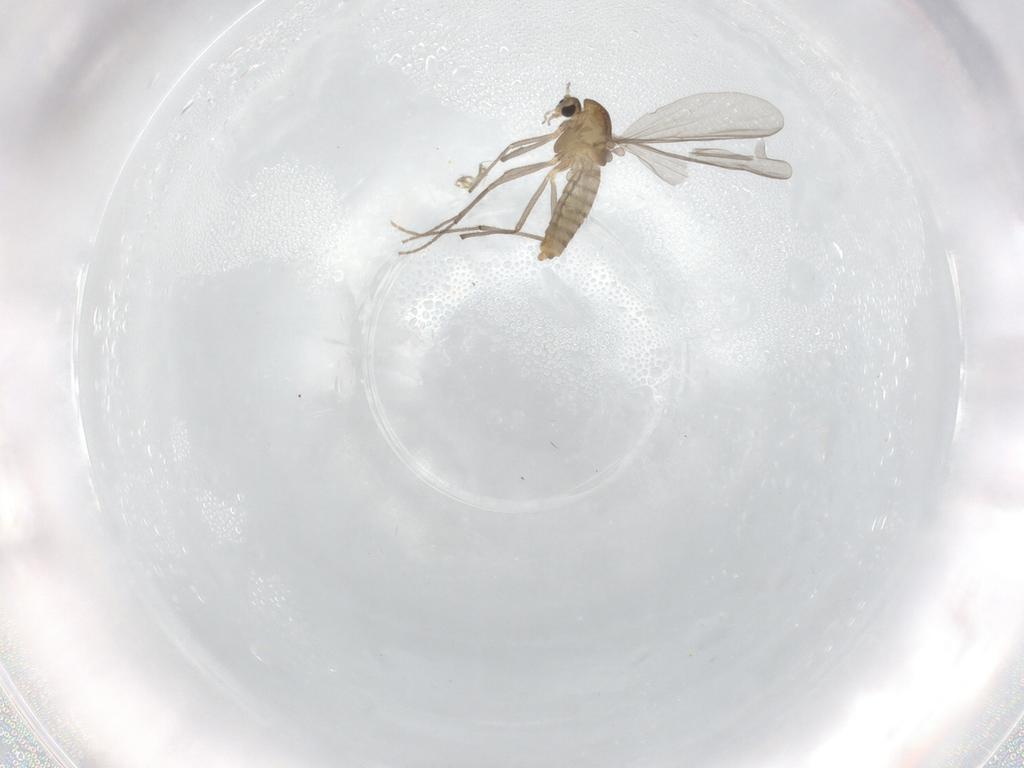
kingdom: Animalia
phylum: Arthropoda
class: Insecta
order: Diptera
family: Chironomidae
